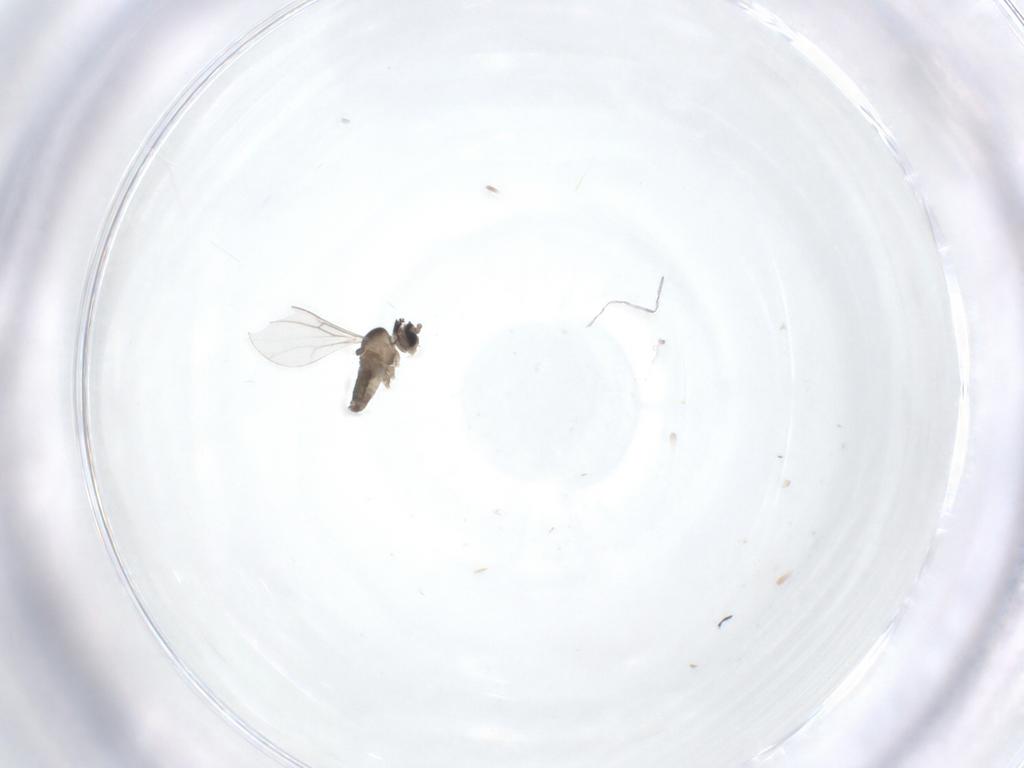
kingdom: Animalia
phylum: Arthropoda
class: Insecta
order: Diptera
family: Cecidomyiidae
